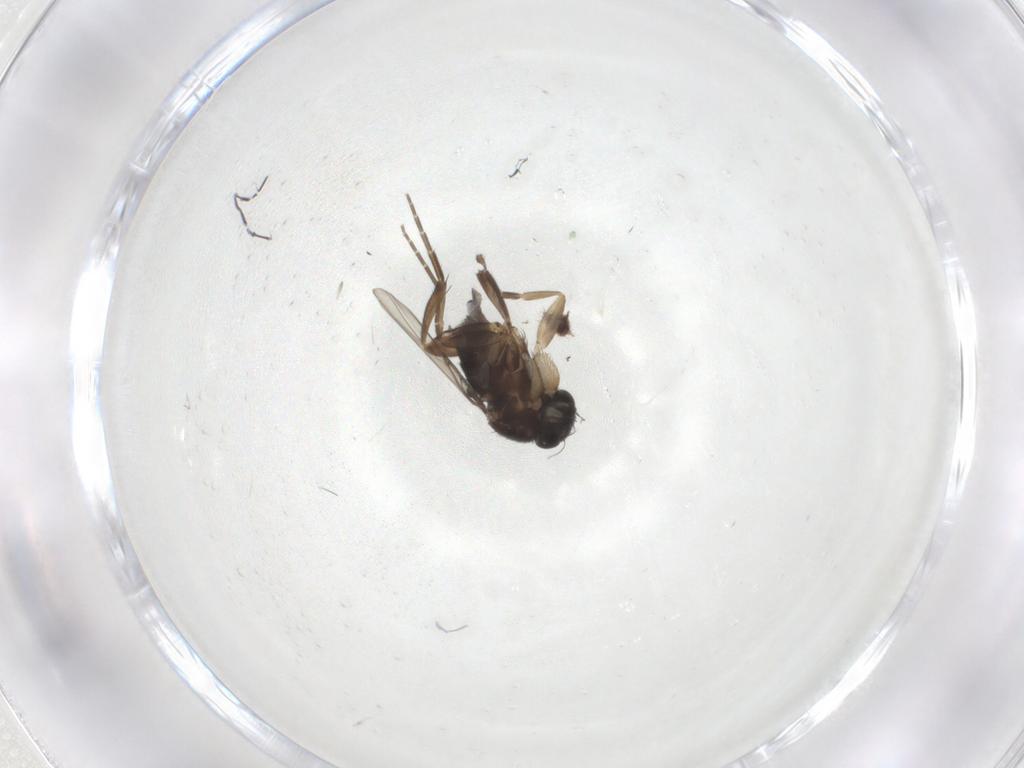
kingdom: Animalia
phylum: Arthropoda
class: Insecta
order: Diptera
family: Phoridae
